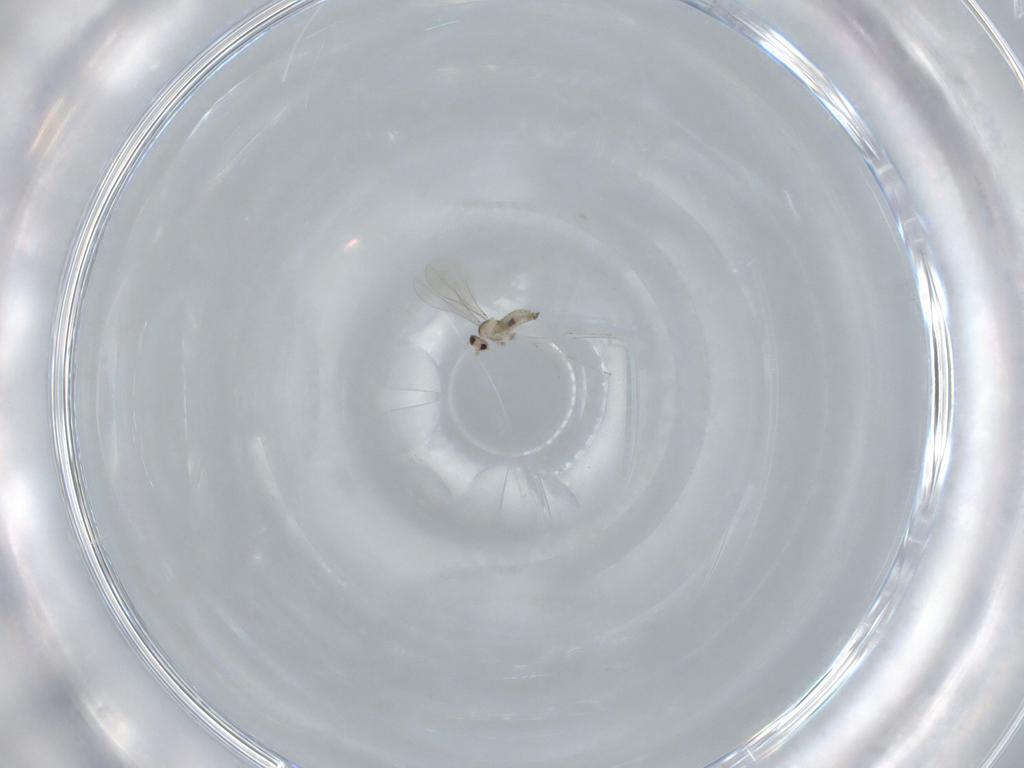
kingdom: Animalia
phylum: Arthropoda
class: Insecta
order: Diptera
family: Cecidomyiidae
